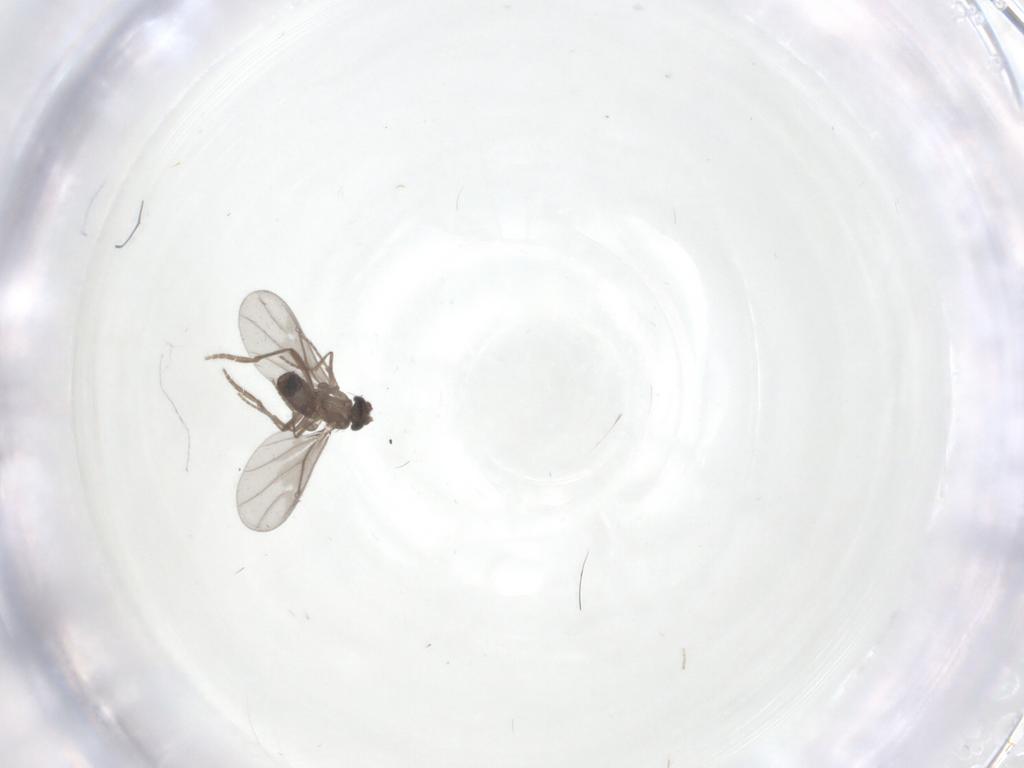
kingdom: Animalia
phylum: Arthropoda
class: Insecta
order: Diptera
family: Phoridae
